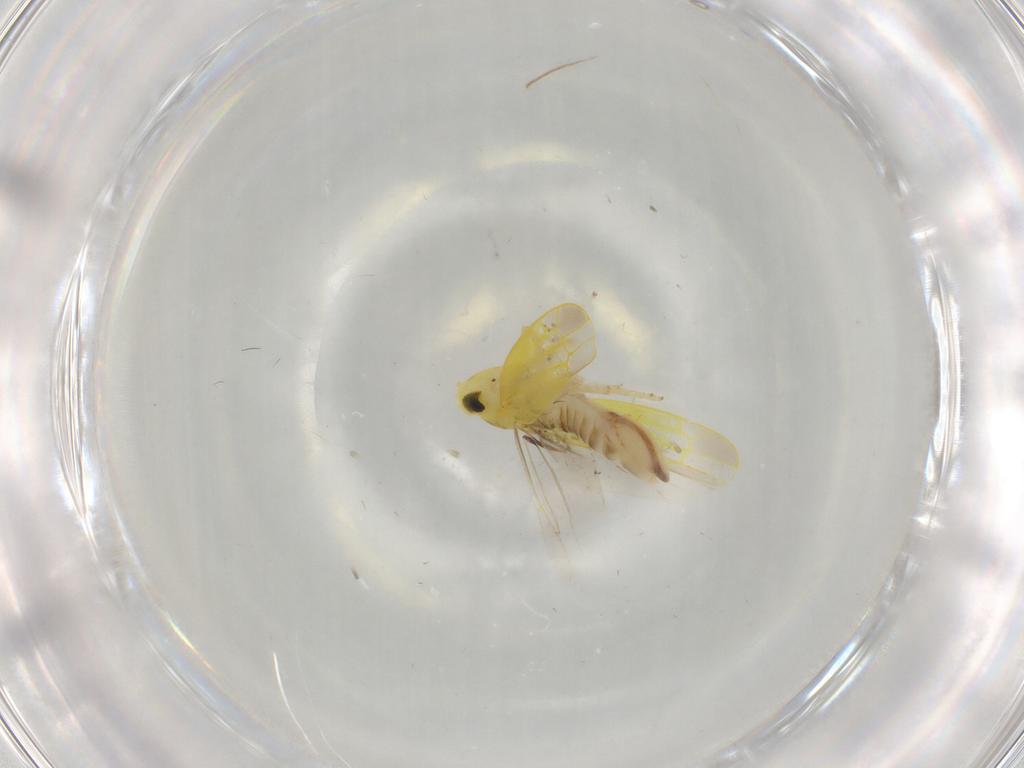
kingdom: Animalia
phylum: Arthropoda
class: Insecta
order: Hemiptera
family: Cicadellidae
